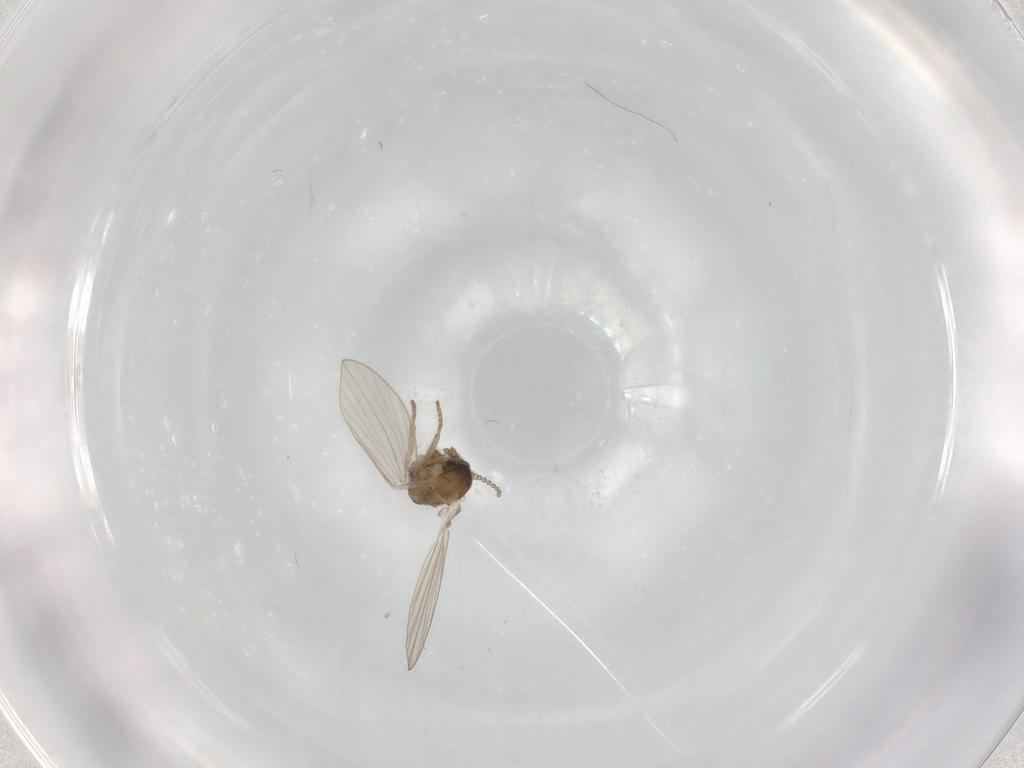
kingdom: Animalia
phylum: Arthropoda
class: Insecta
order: Diptera
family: Psychodidae
